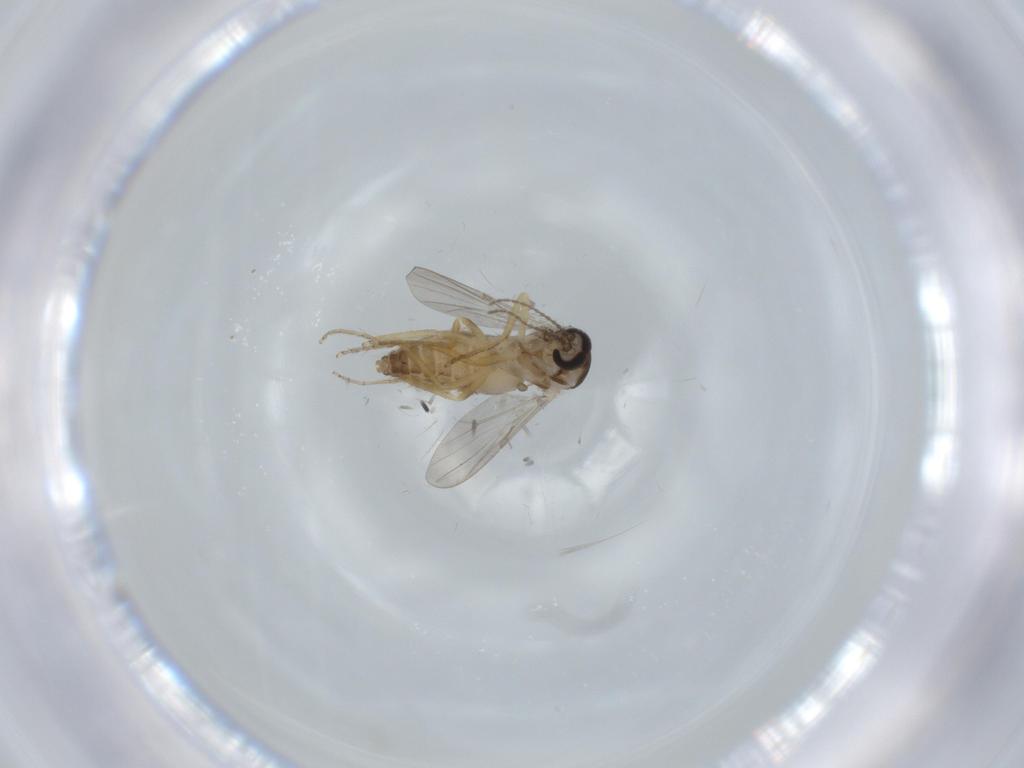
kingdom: Animalia
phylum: Arthropoda
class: Insecta
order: Diptera
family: Ceratopogonidae
